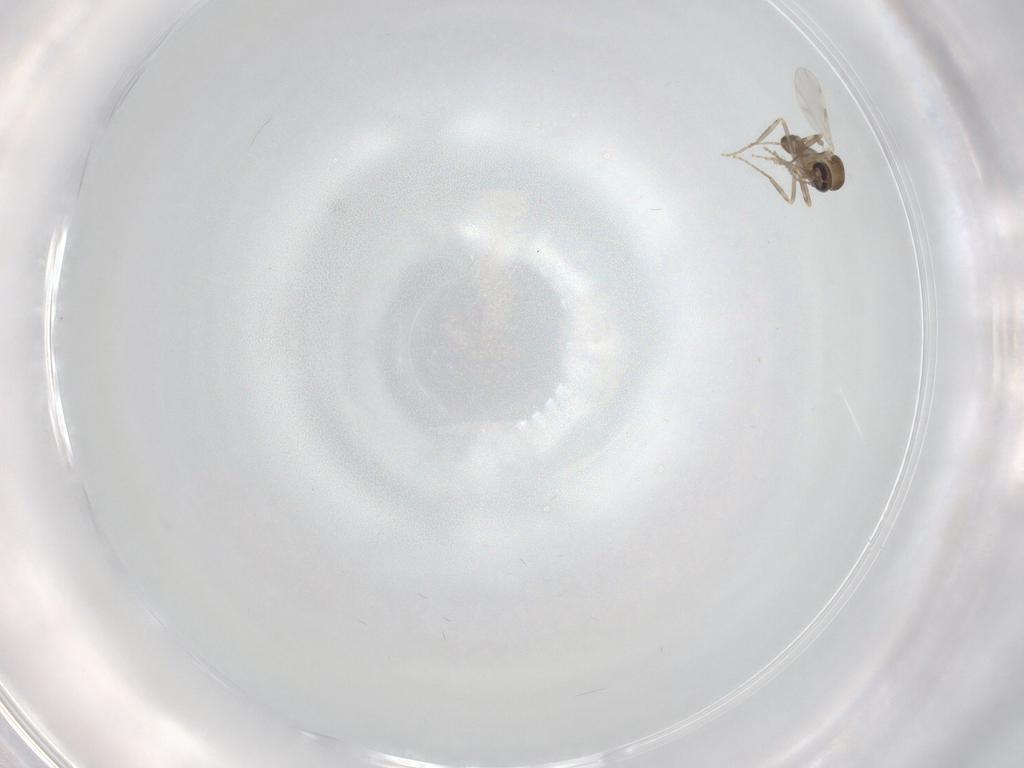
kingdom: Animalia
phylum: Arthropoda
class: Insecta
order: Diptera
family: Ceratopogonidae
